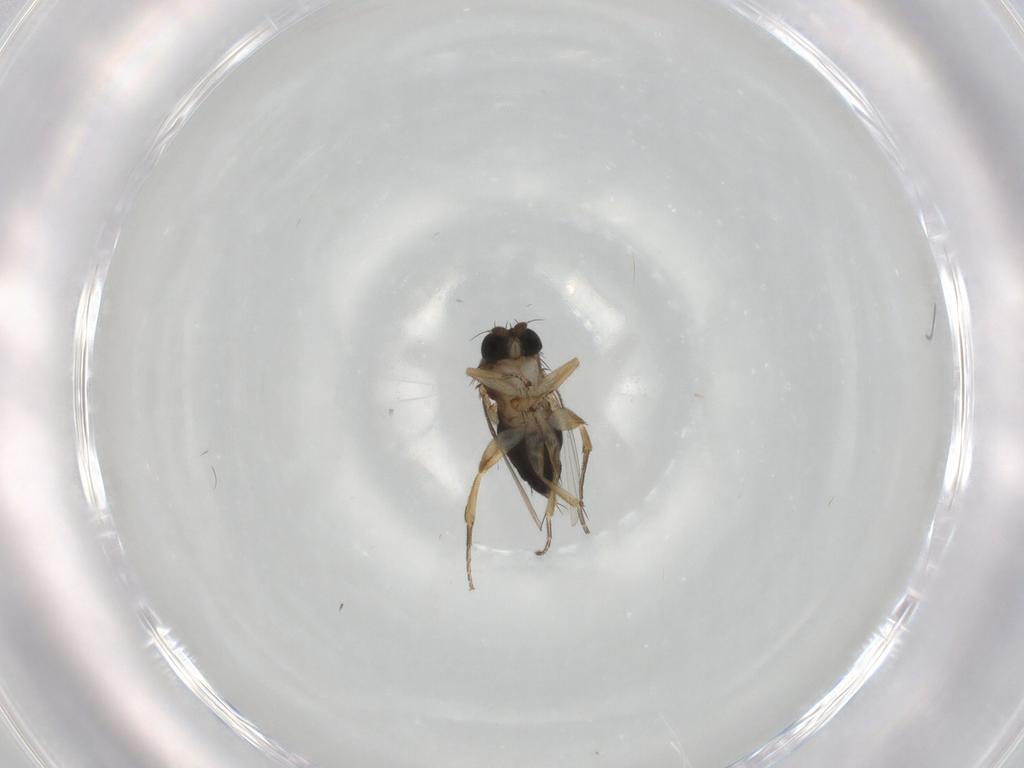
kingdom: Animalia
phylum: Arthropoda
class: Insecta
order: Diptera
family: Phoridae
